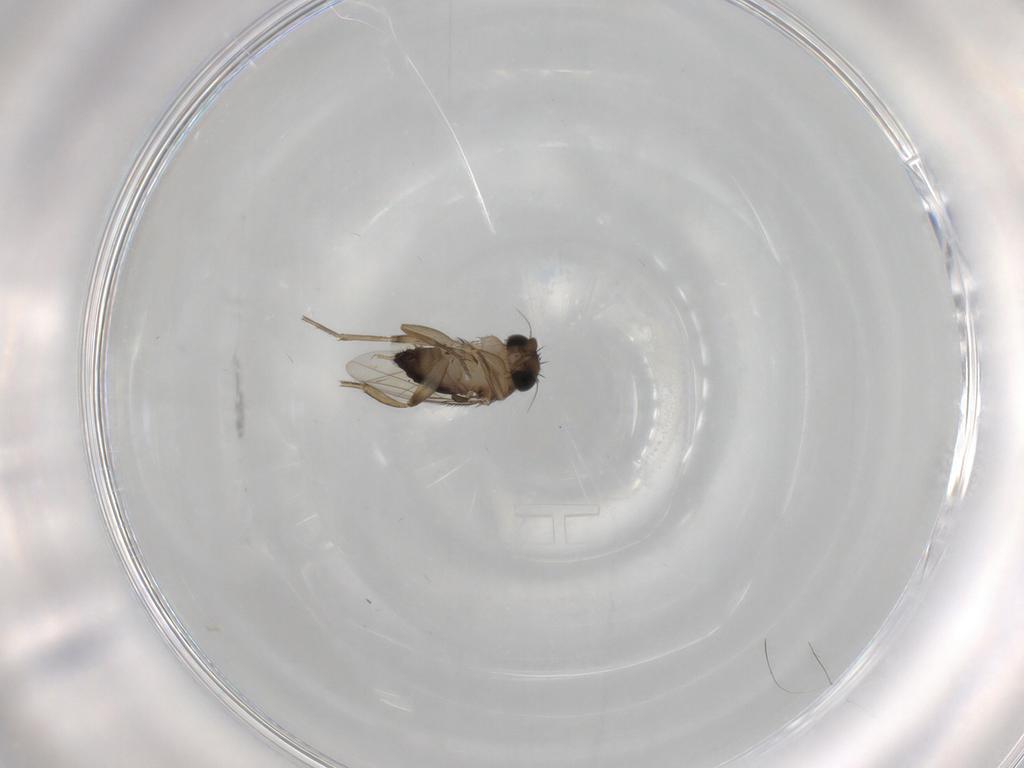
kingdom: Animalia
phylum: Arthropoda
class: Insecta
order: Diptera
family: Phoridae
